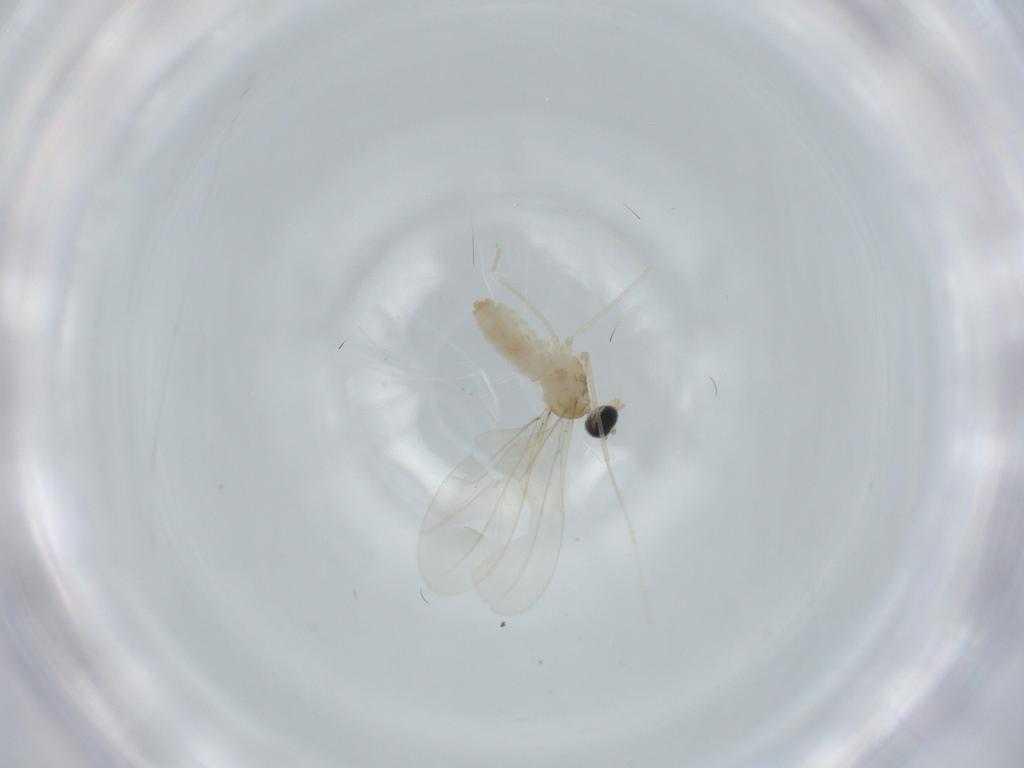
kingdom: Animalia
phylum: Arthropoda
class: Insecta
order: Diptera
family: Cecidomyiidae
